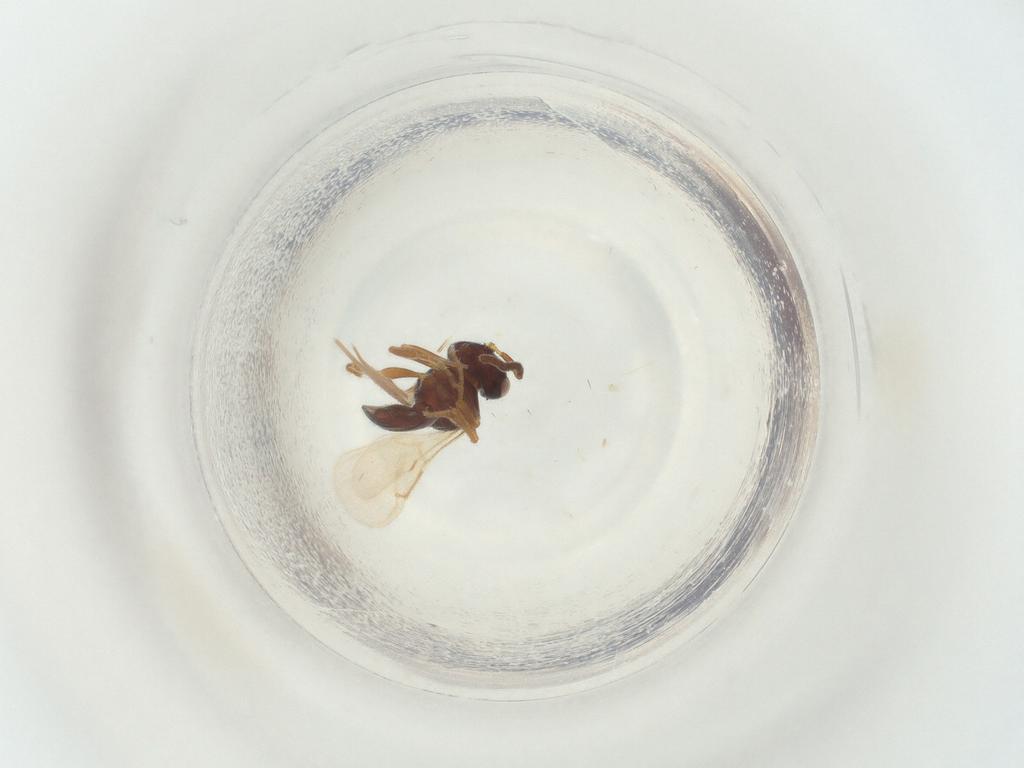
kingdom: Animalia
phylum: Arthropoda
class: Insecta
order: Hymenoptera
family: Scelionidae
